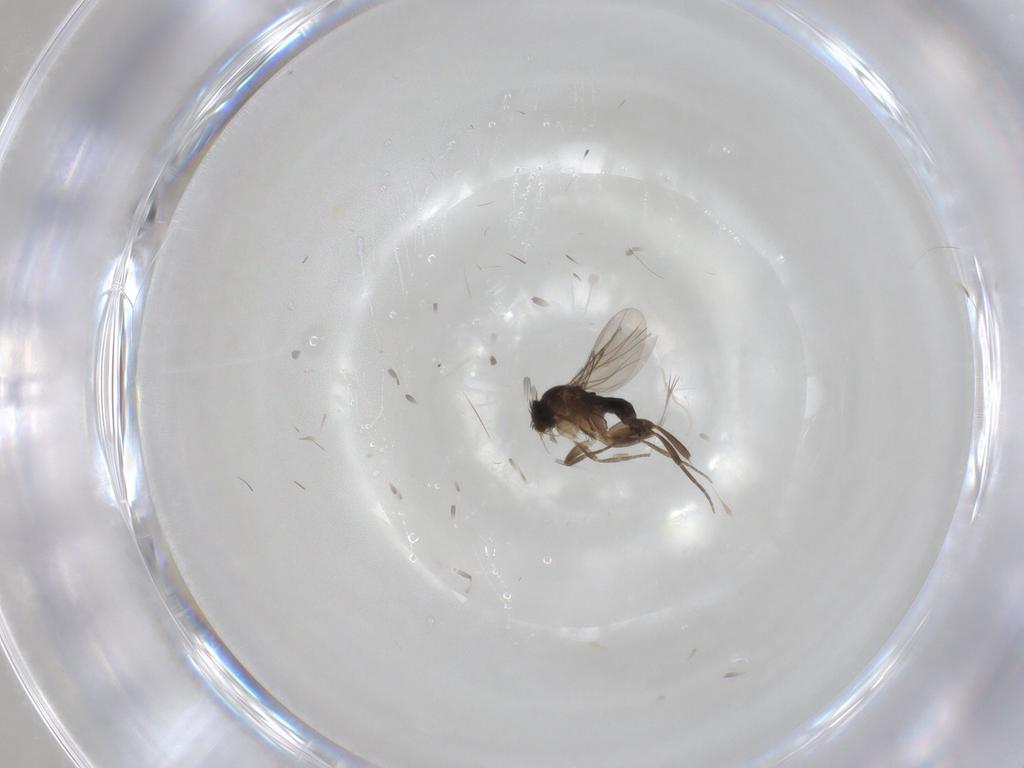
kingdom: Animalia
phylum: Arthropoda
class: Insecta
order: Diptera
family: Phoridae
